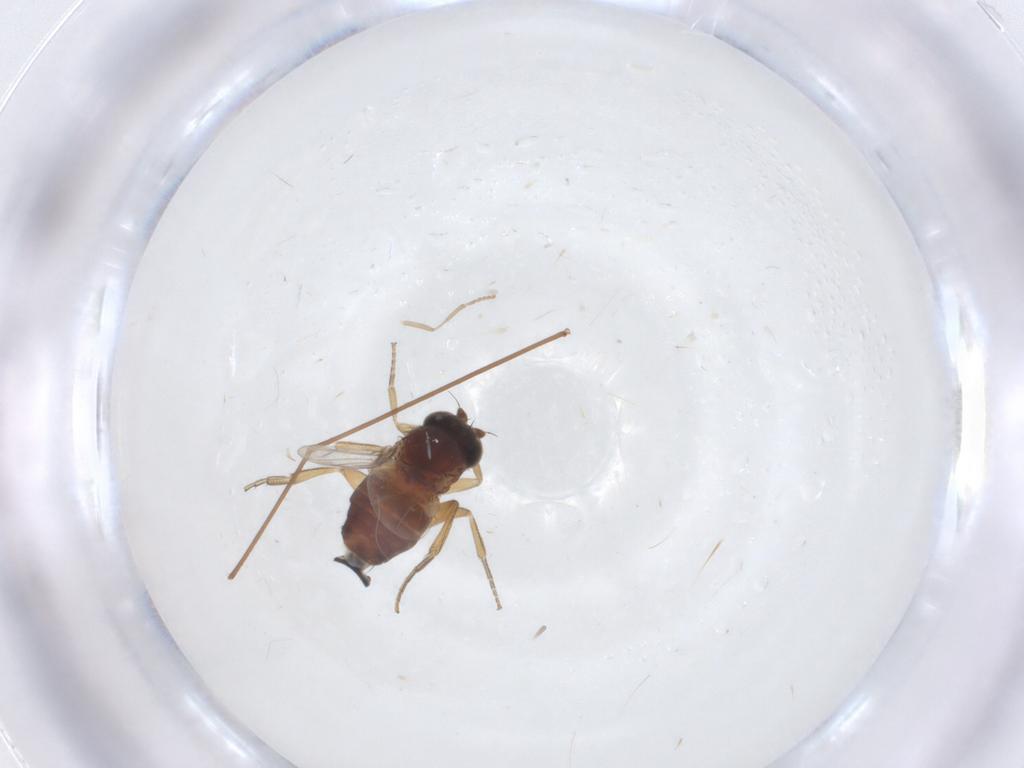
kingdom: Animalia
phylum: Arthropoda
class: Insecta
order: Diptera
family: Phoridae
